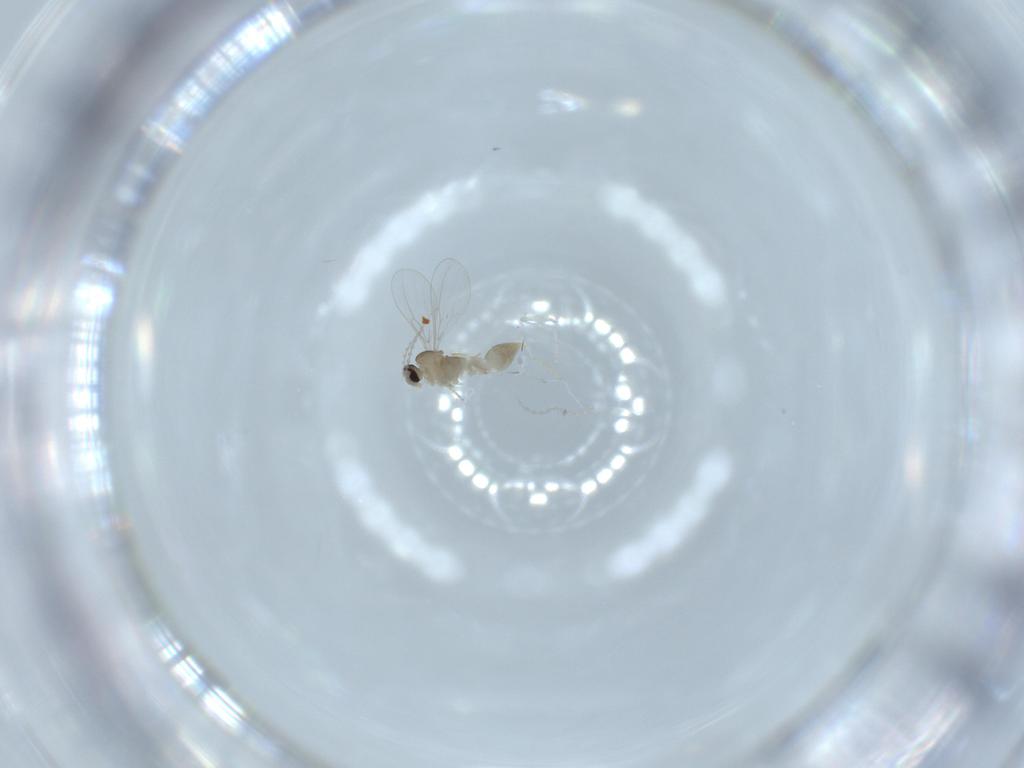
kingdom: Animalia
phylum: Arthropoda
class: Insecta
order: Diptera
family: Cecidomyiidae
